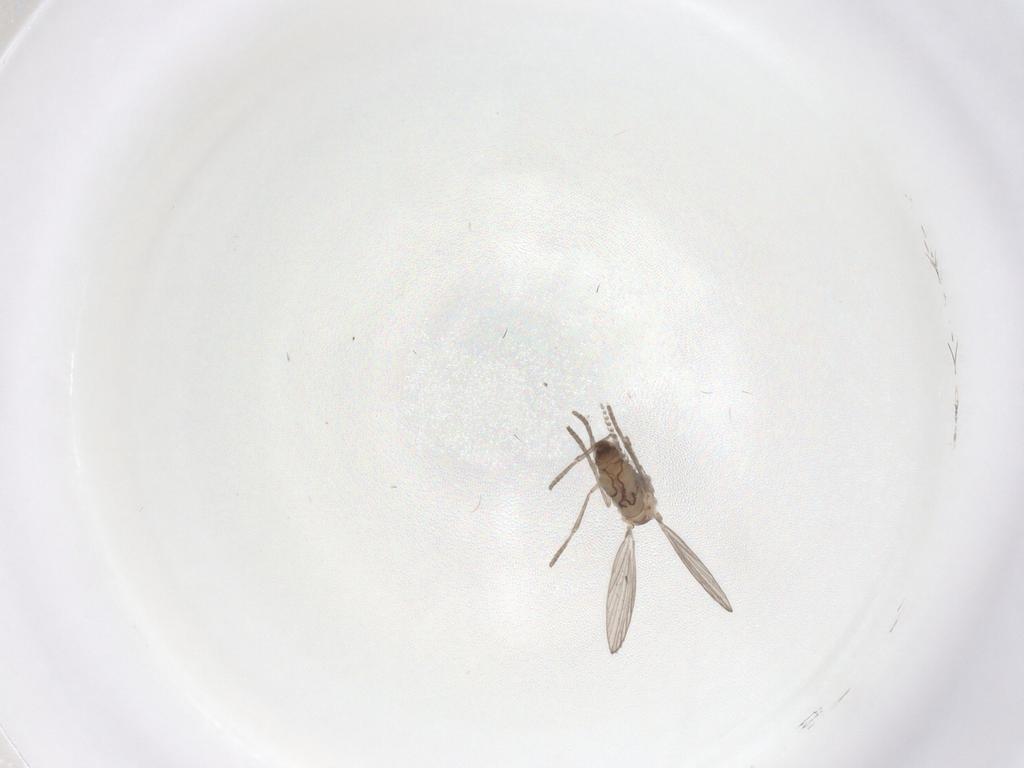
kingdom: Animalia
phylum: Arthropoda
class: Insecta
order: Diptera
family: Psychodidae
